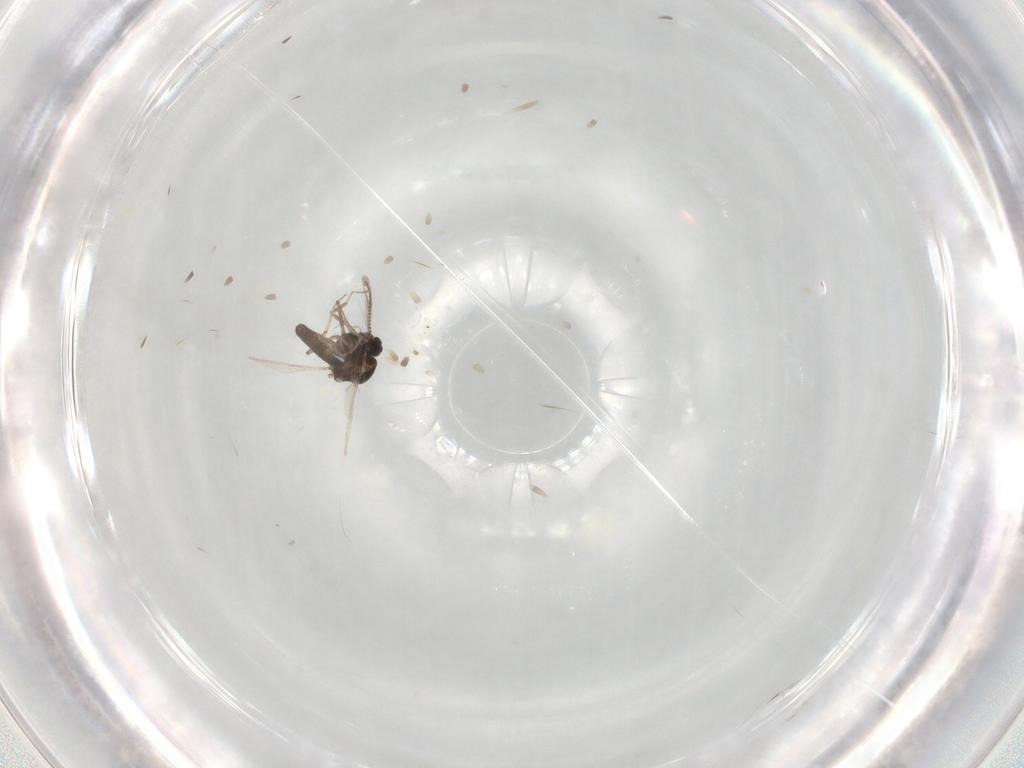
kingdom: Animalia
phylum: Arthropoda
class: Insecta
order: Diptera
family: Ceratopogonidae
